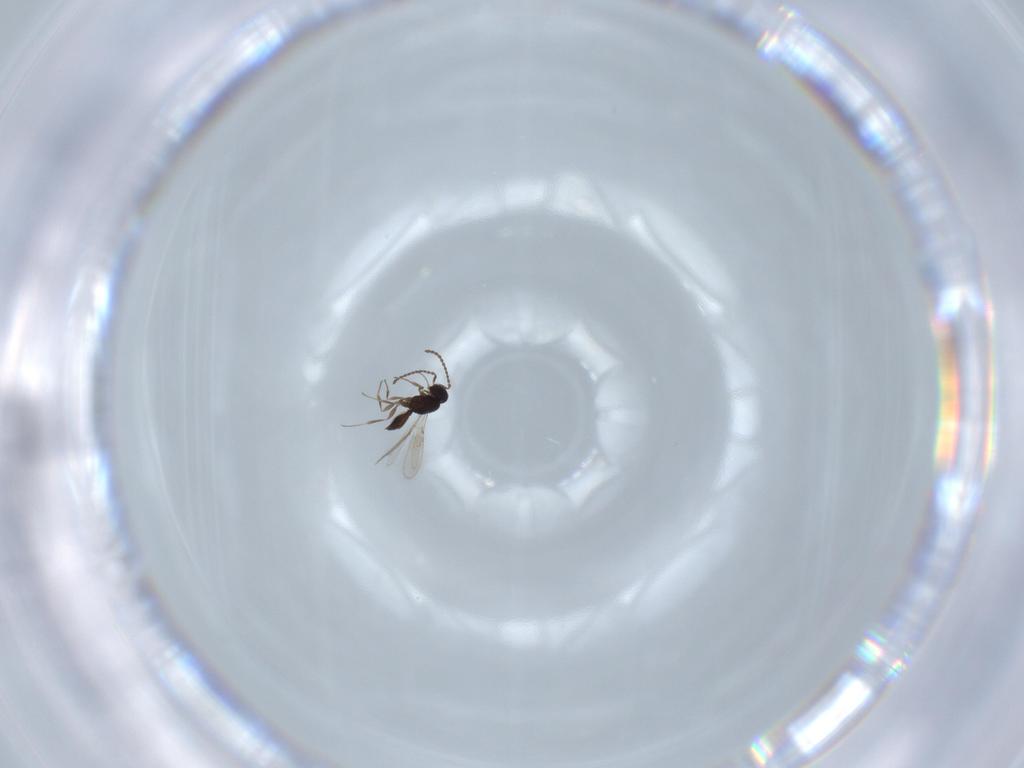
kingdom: Animalia
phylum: Arthropoda
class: Insecta
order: Hymenoptera
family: Scelionidae
